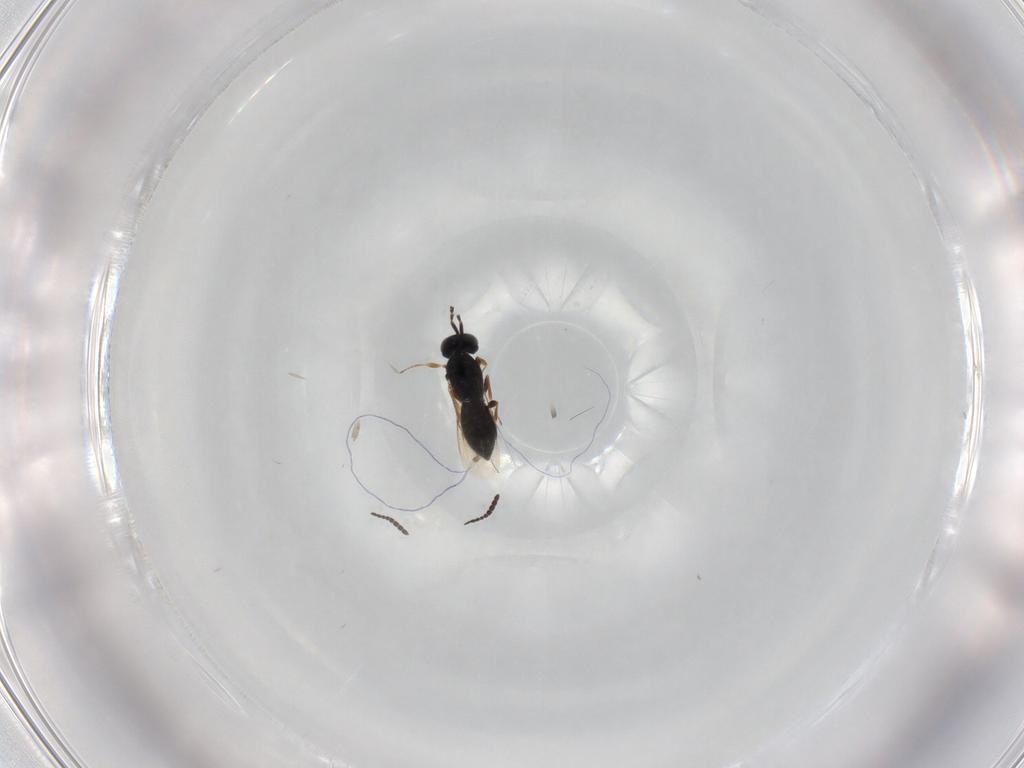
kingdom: Animalia
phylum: Arthropoda
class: Insecta
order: Hymenoptera
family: Scelionidae
